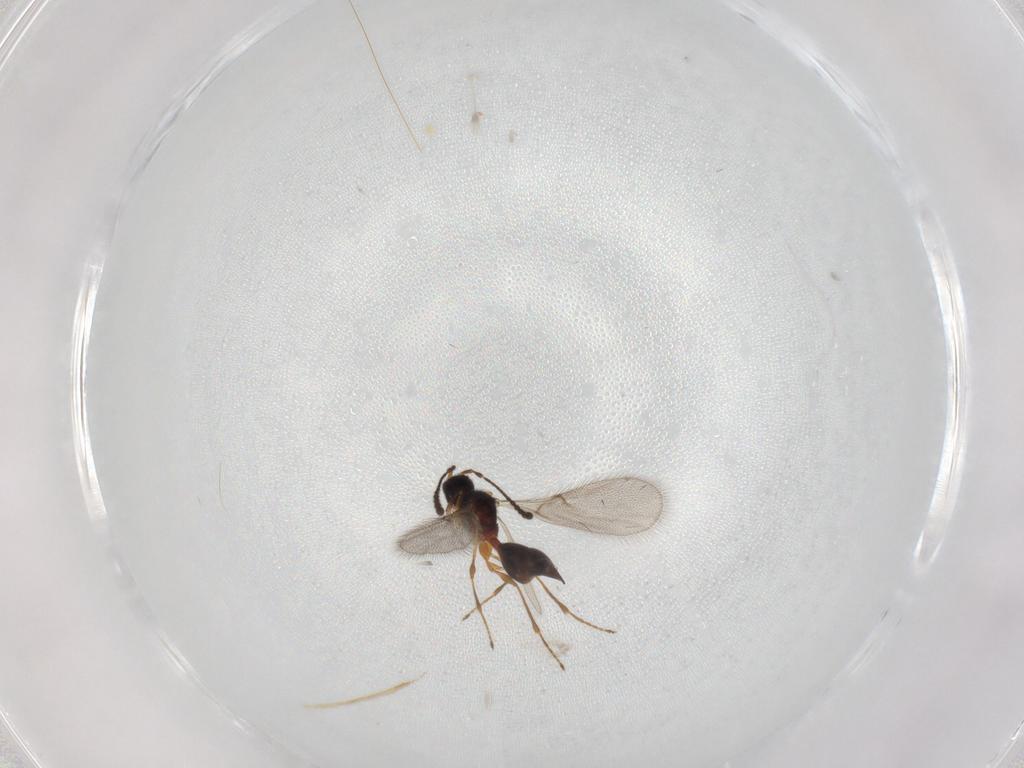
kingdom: Animalia
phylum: Arthropoda
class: Insecta
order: Hymenoptera
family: Diapriidae
